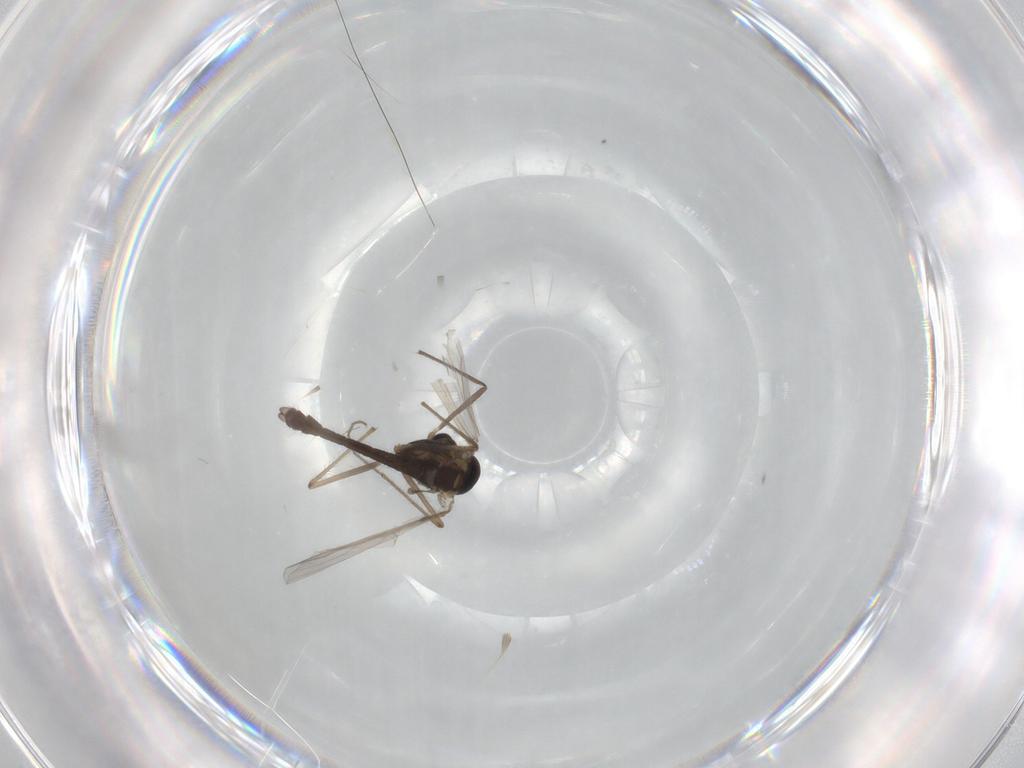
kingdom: Animalia
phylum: Arthropoda
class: Insecta
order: Diptera
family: Chironomidae
